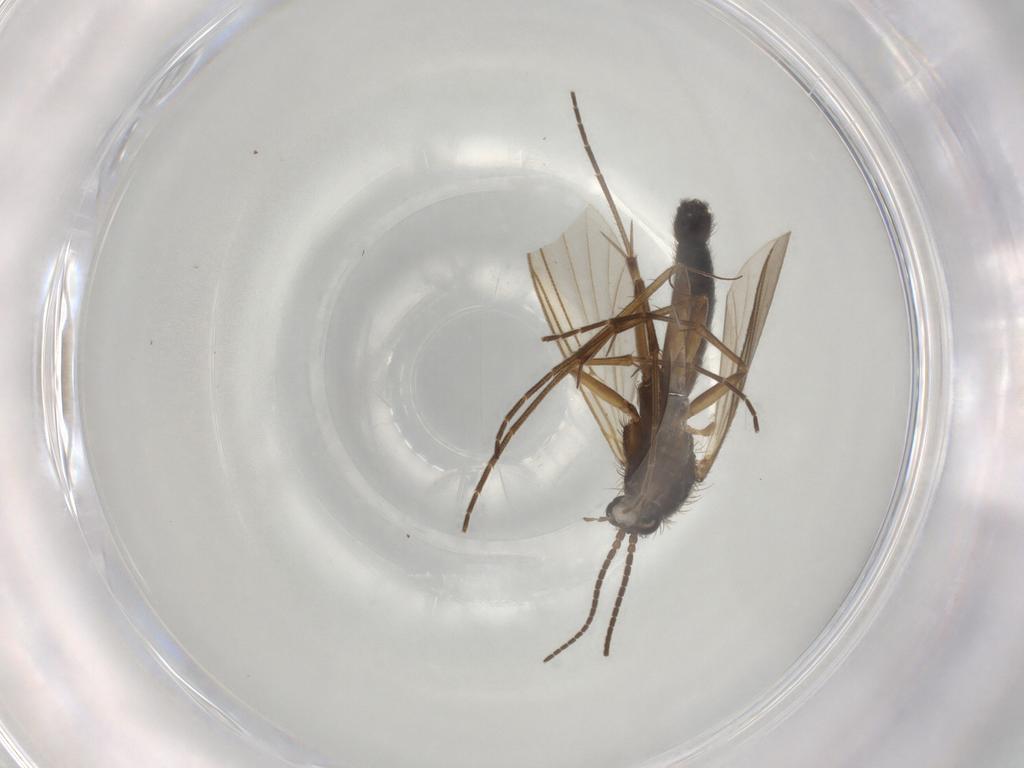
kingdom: Animalia
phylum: Arthropoda
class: Insecta
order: Diptera
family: Mycetophilidae
